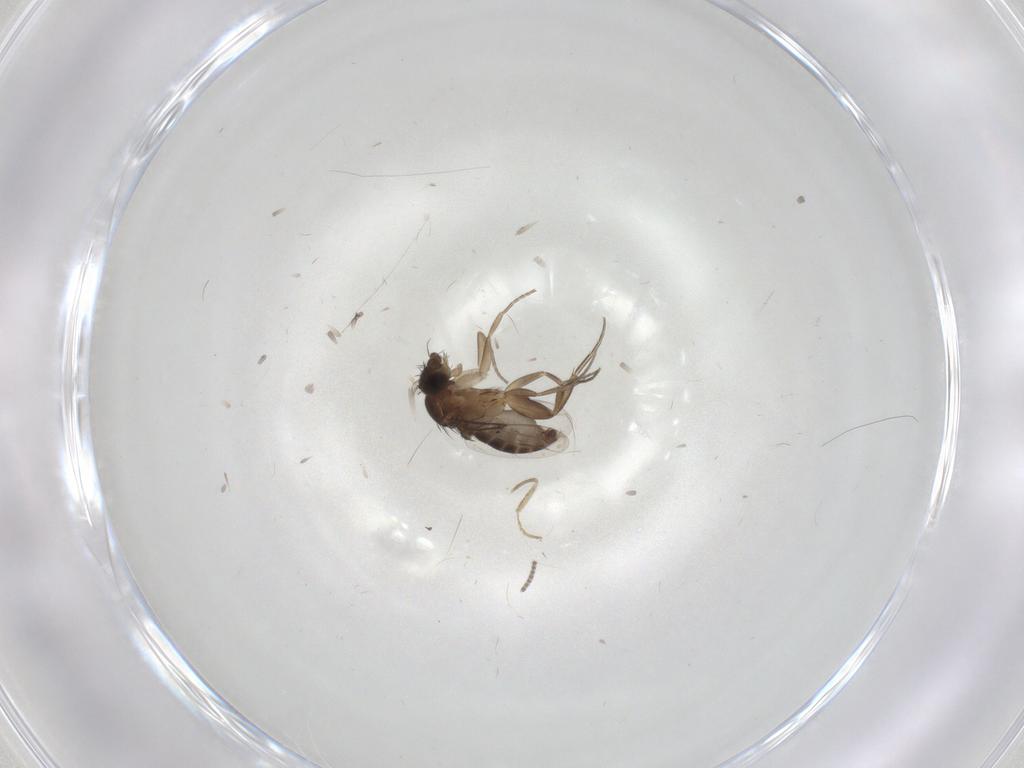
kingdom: Animalia
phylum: Arthropoda
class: Insecta
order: Diptera
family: Phoridae
